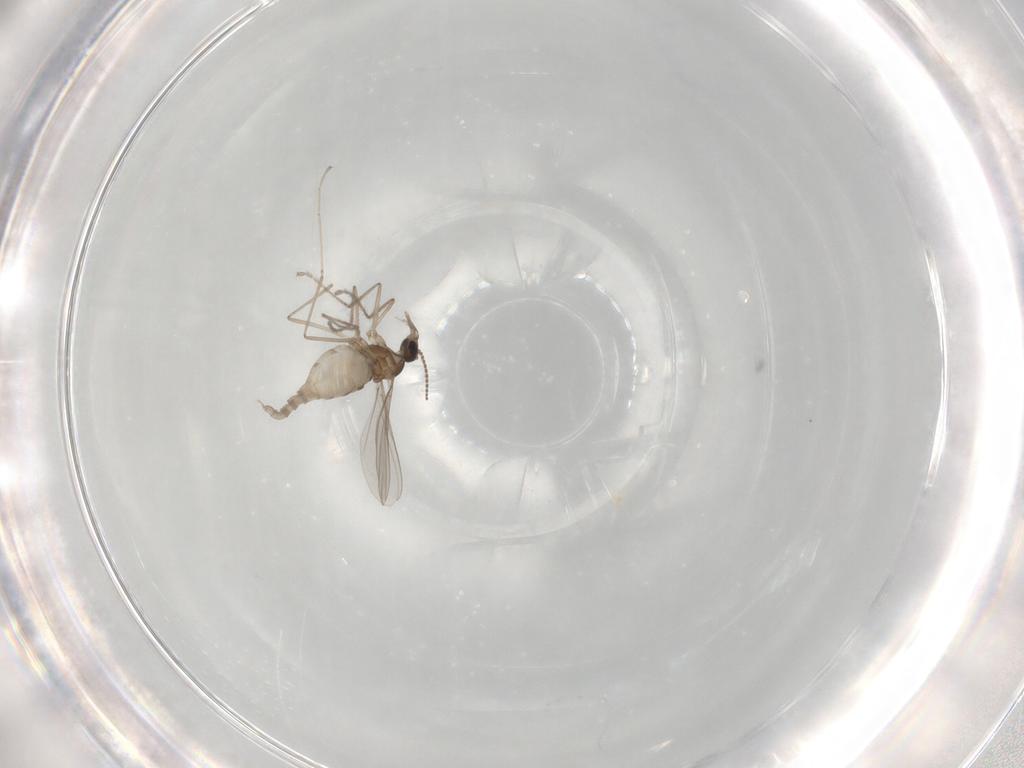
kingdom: Animalia
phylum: Arthropoda
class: Insecta
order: Diptera
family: Cecidomyiidae
